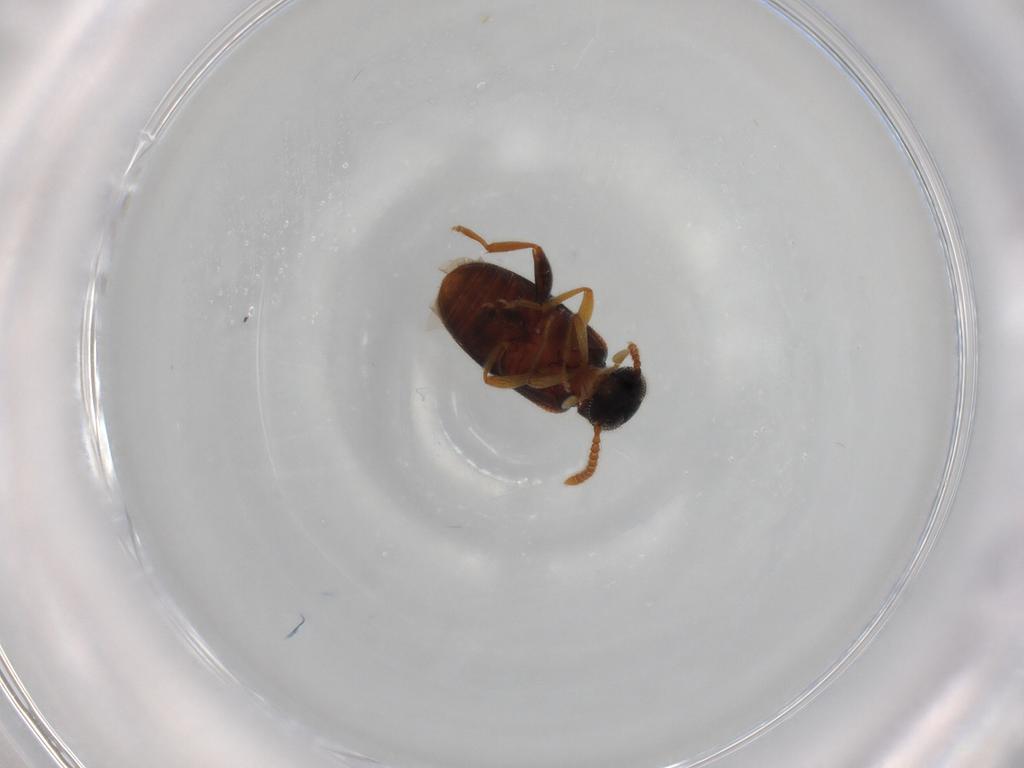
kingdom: Animalia
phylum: Arthropoda
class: Insecta
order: Coleoptera
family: Aderidae
